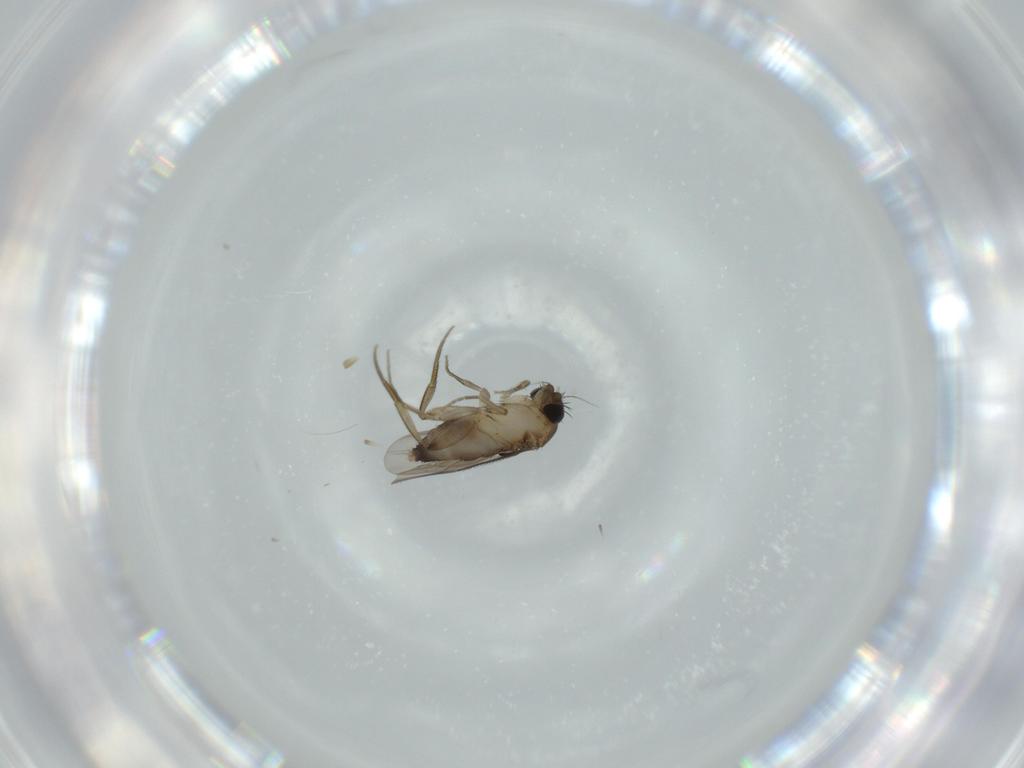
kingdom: Animalia
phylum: Arthropoda
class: Insecta
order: Diptera
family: Phoridae
